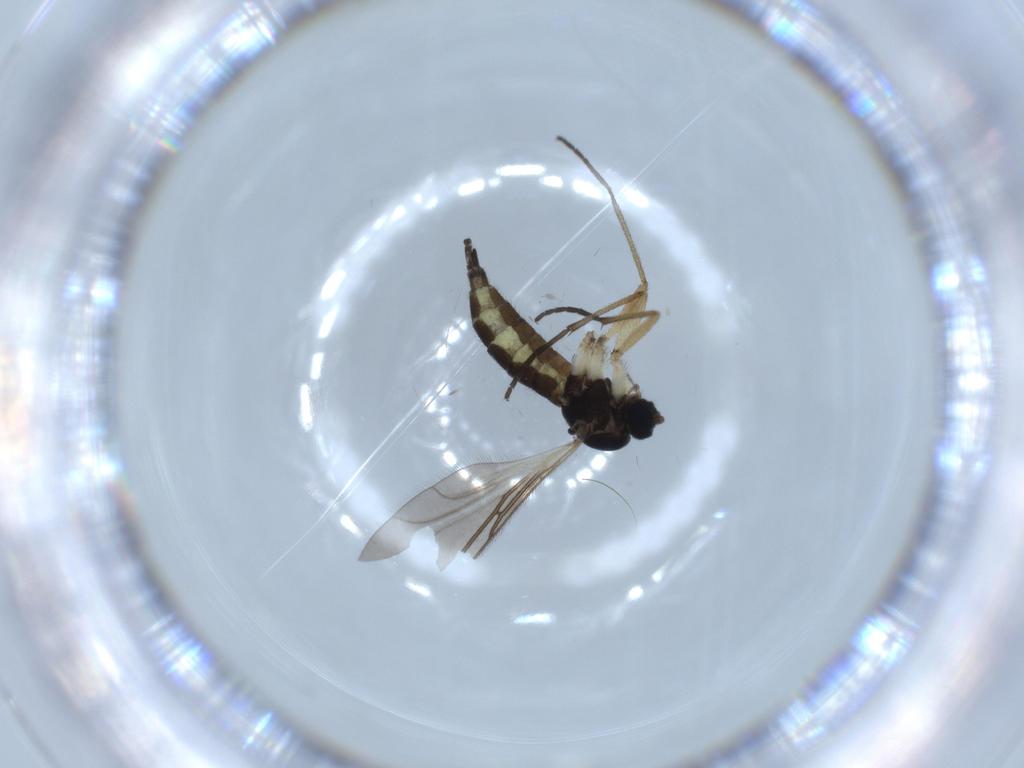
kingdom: Animalia
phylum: Arthropoda
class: Insecta
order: Diptera
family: Sciaridae
